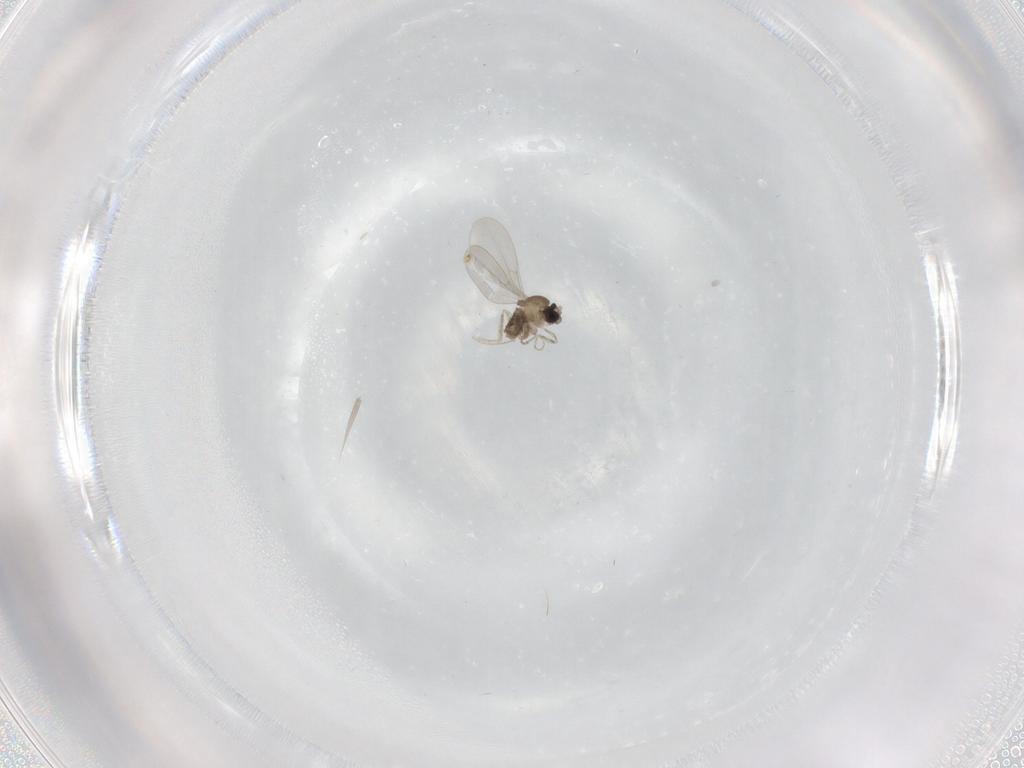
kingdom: Animalia
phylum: Arthropoda
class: Insecta
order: Diptera
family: Cecidomyiidae
